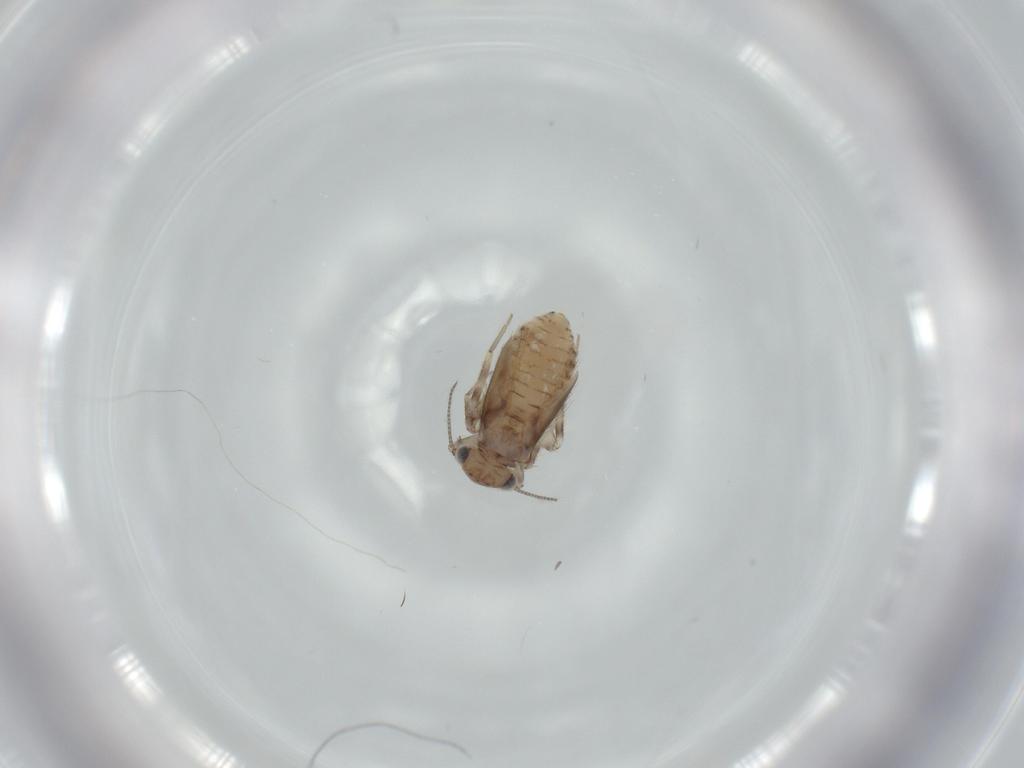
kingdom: Animalia
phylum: Arthropoda
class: Insecta
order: Psocodea
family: Lepidopsocidae
